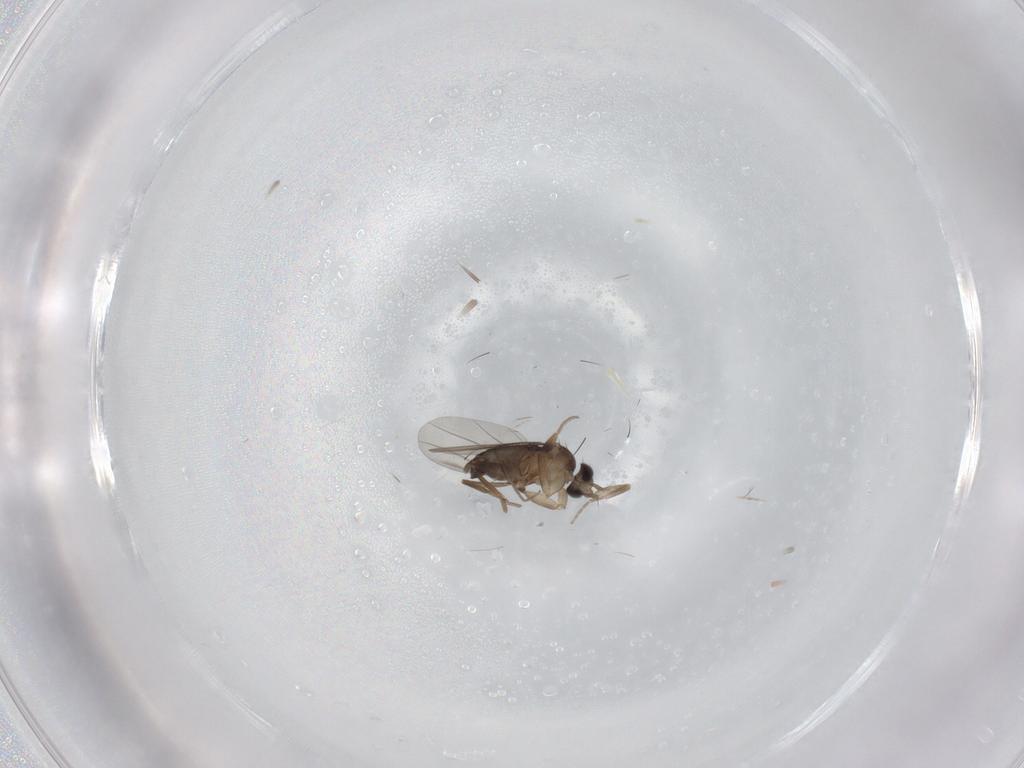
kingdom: Animalia
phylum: Arthropoda
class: Insecta
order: Diptera
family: Phoridae
